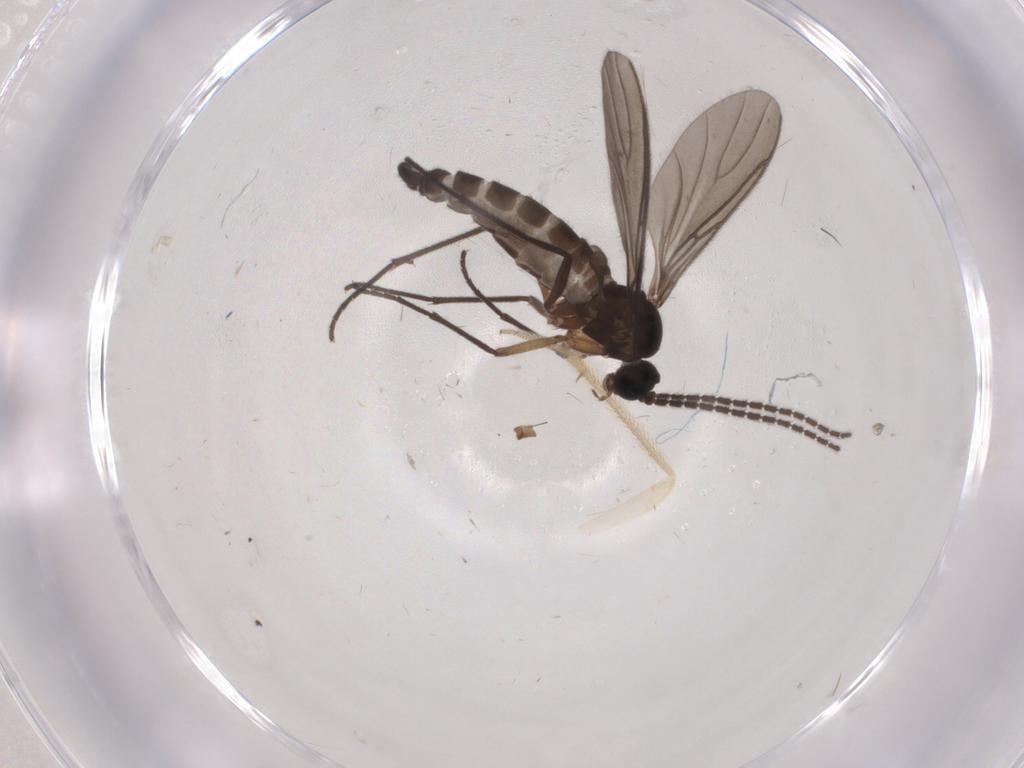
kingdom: Animalia
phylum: Arthropoda
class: Insecta
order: Diptera
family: Sciaridae
